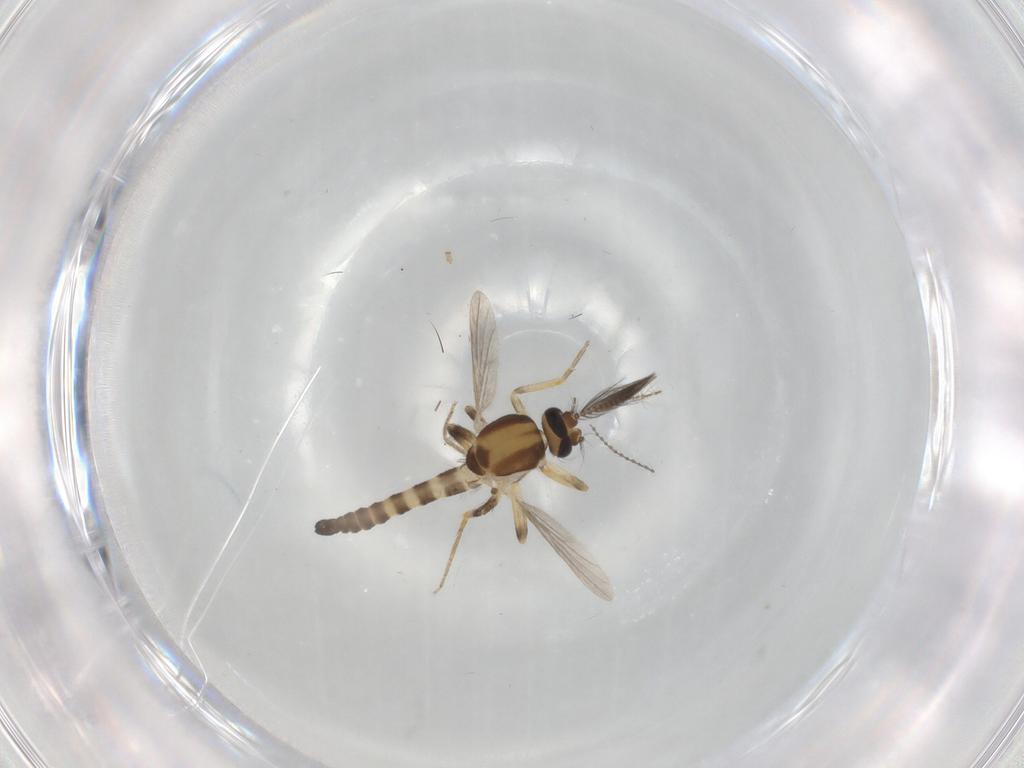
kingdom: Animalia
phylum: Arthropoda
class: Insecta
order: Diptera
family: Ceratopogonidae
